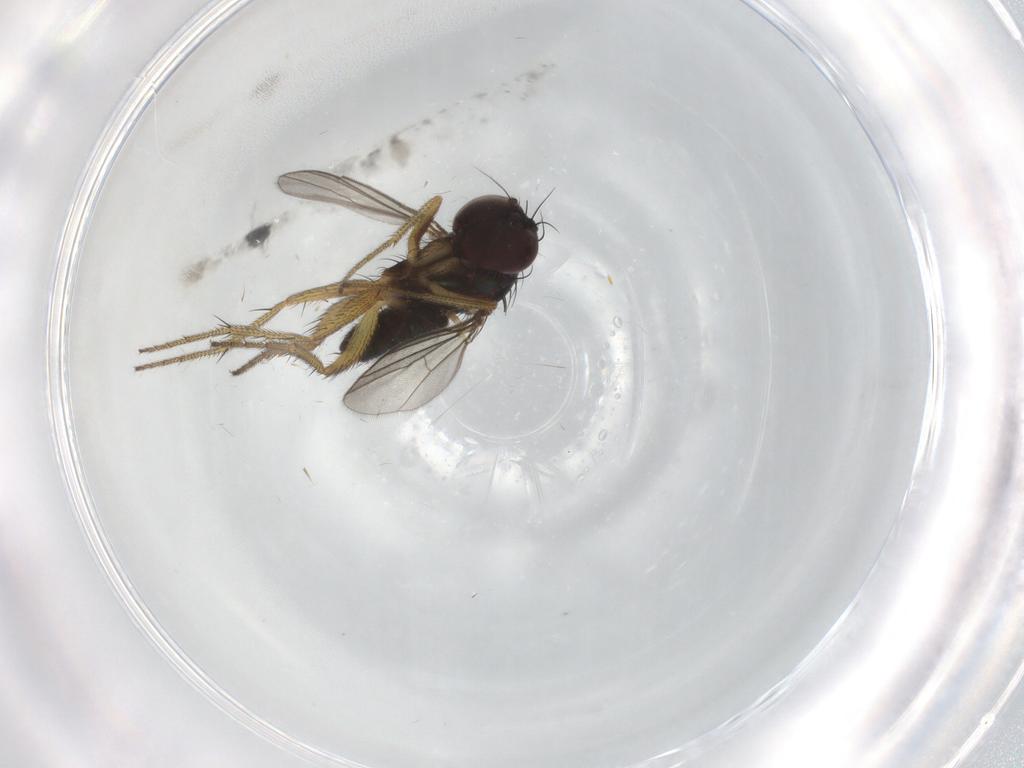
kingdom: Animalia
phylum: Arthropoda
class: Insecta
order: Diptera
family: Dolichopodidae
